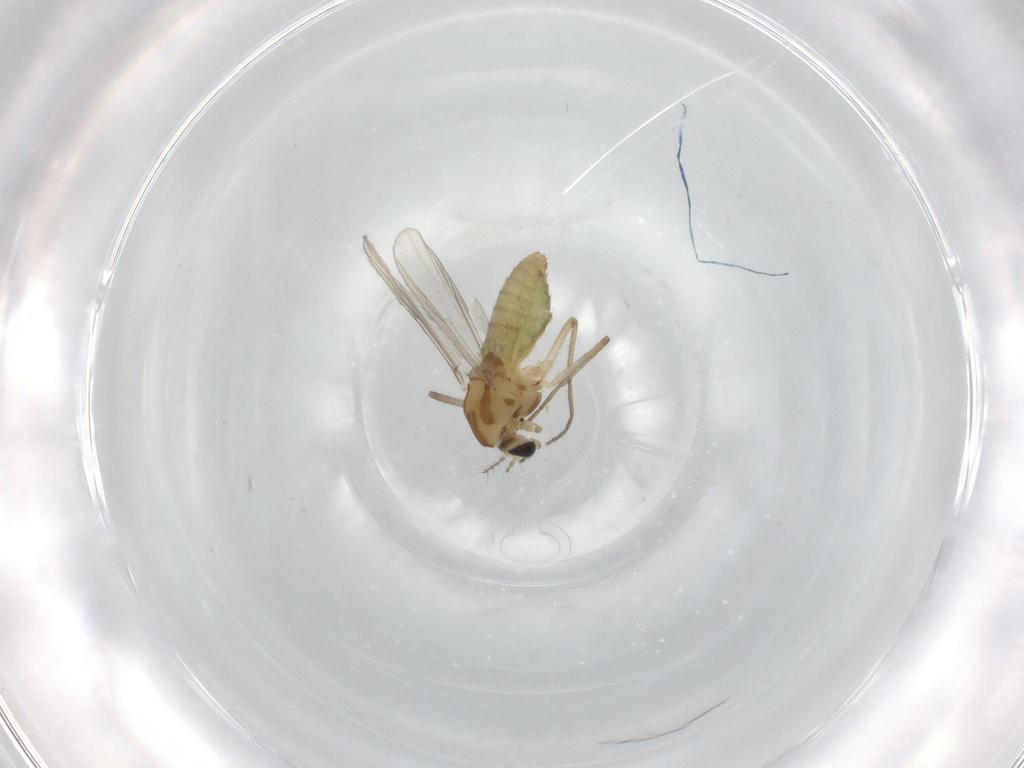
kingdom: Animalia
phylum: Arthropoda
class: Insecta
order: Diptera
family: Chironomidae
